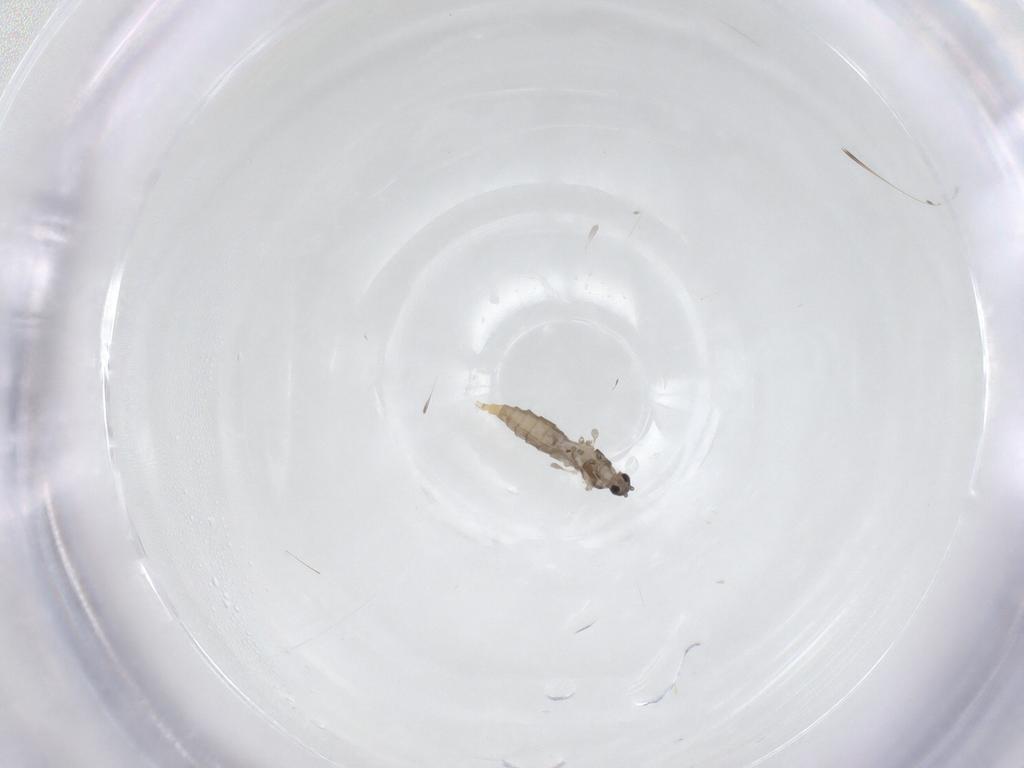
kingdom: Animalia
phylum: Arthropoda
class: Insecta
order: Diptera
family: Cecidomyiidae
